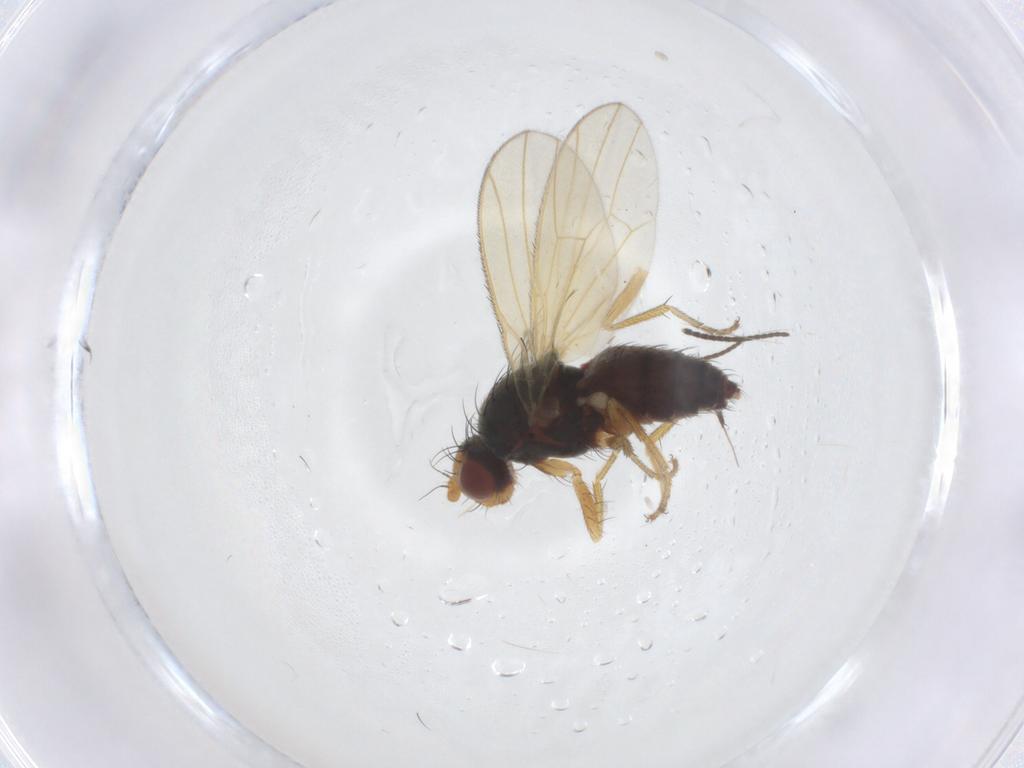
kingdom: Animalia
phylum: Arthropoda
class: Insecta
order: Diptera
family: Heleomyzidae
